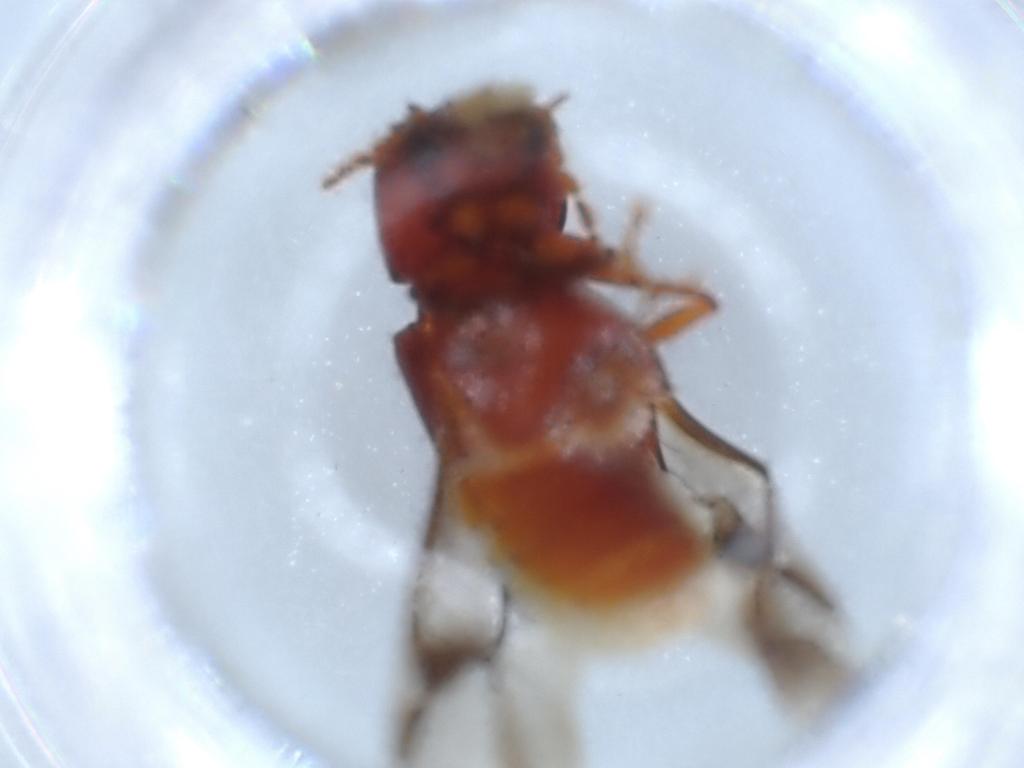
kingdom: Animalia
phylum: Arthropoda
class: Insecta
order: Coleoptera
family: Bostrichidae
